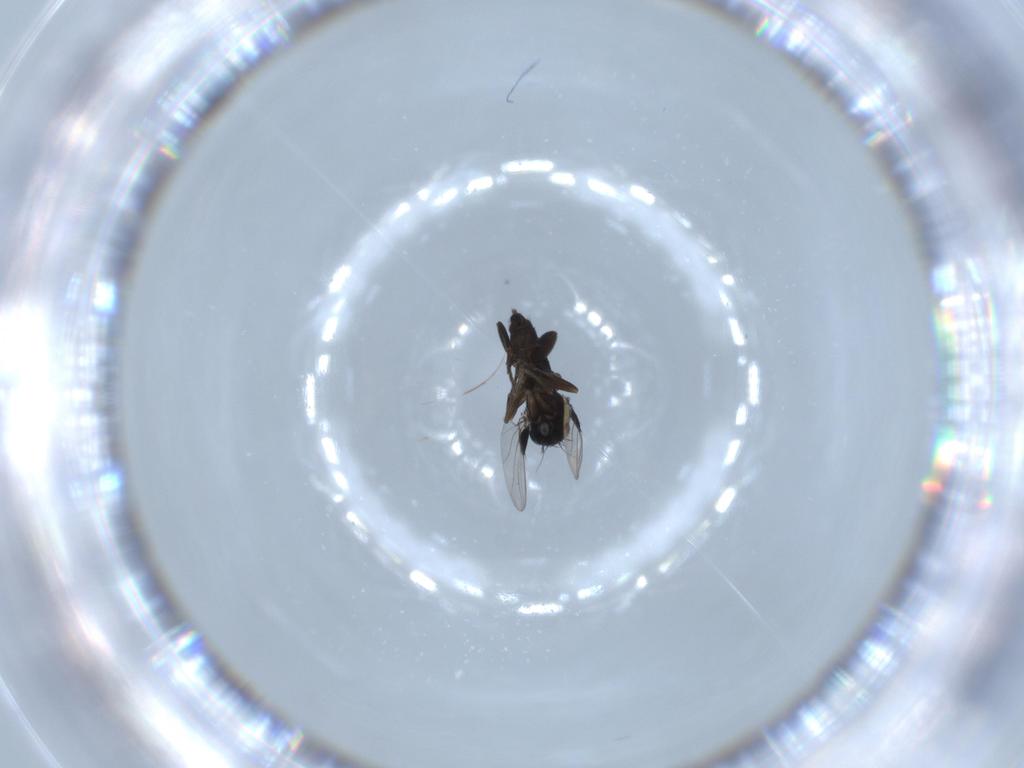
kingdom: Animalia
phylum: Arthropoda
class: Insecta
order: Diptera
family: Phoridae
